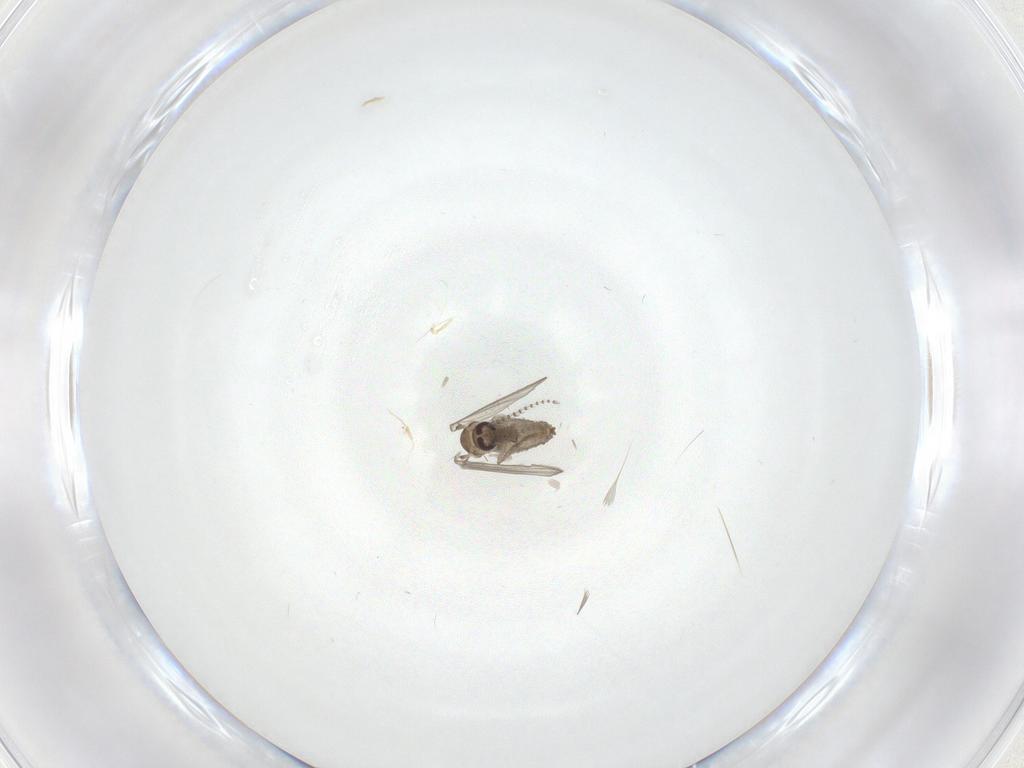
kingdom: Animalia
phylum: Arthropoda
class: Insecta
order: Diptera
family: Psychodidae
